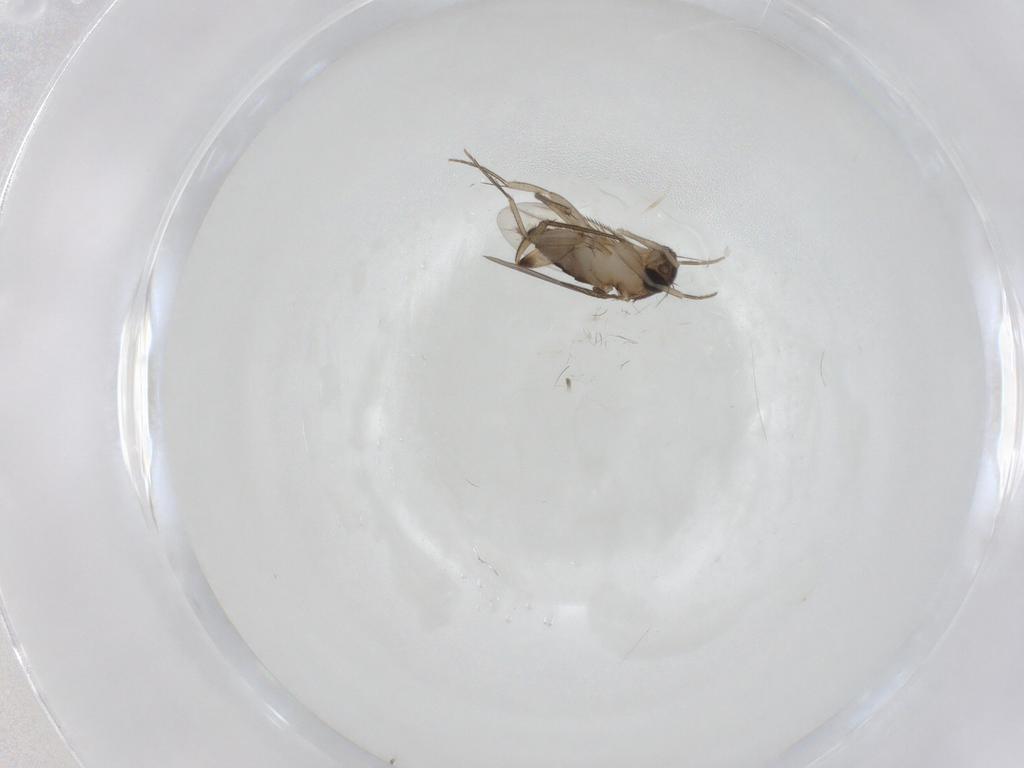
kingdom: Animalia
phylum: Arthropoda
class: Insecta
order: Diptera
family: Phoridae
